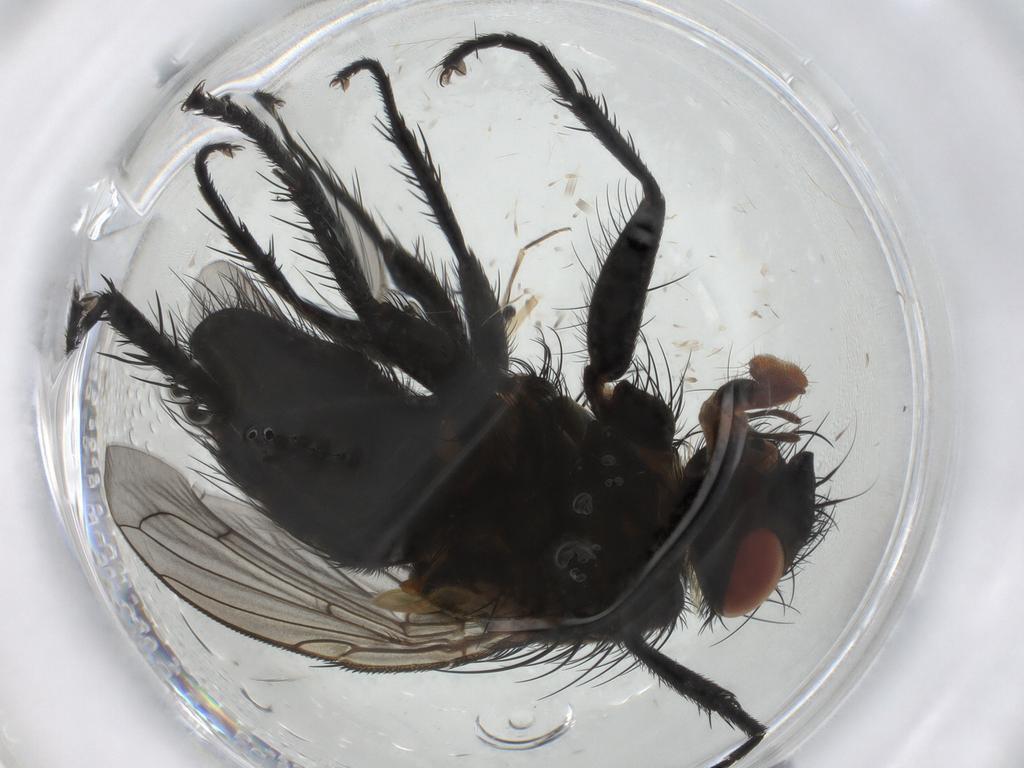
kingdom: Animalia
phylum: Arthropoda
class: Insecta
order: Diptera
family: Tachinidae
